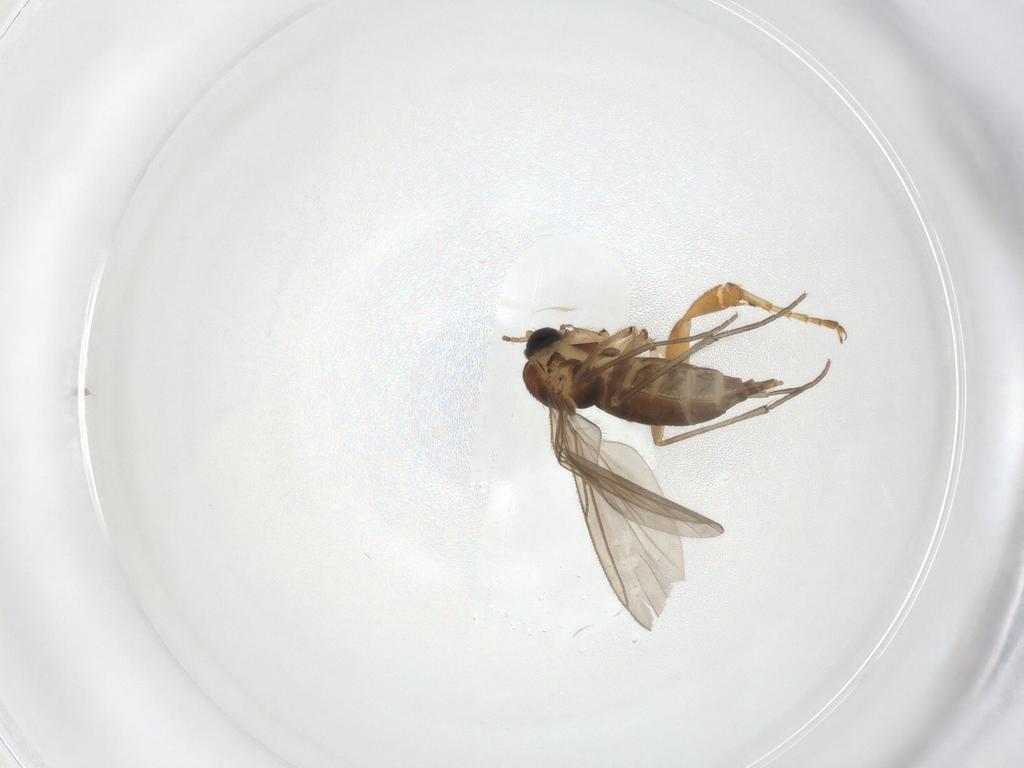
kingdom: Animalia
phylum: Arthropoda
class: Insecta
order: Diptera
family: Sciaridae
